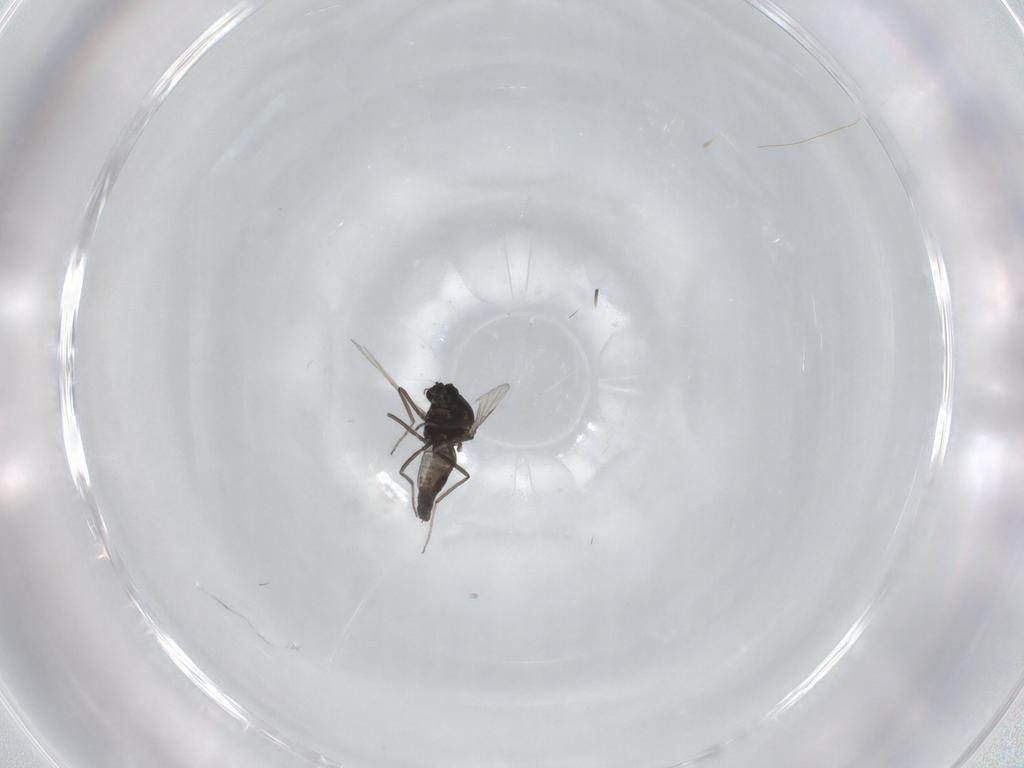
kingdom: Animalia
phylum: Arthropoda
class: Insecta
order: Diptera
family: Ceratopogonidae
